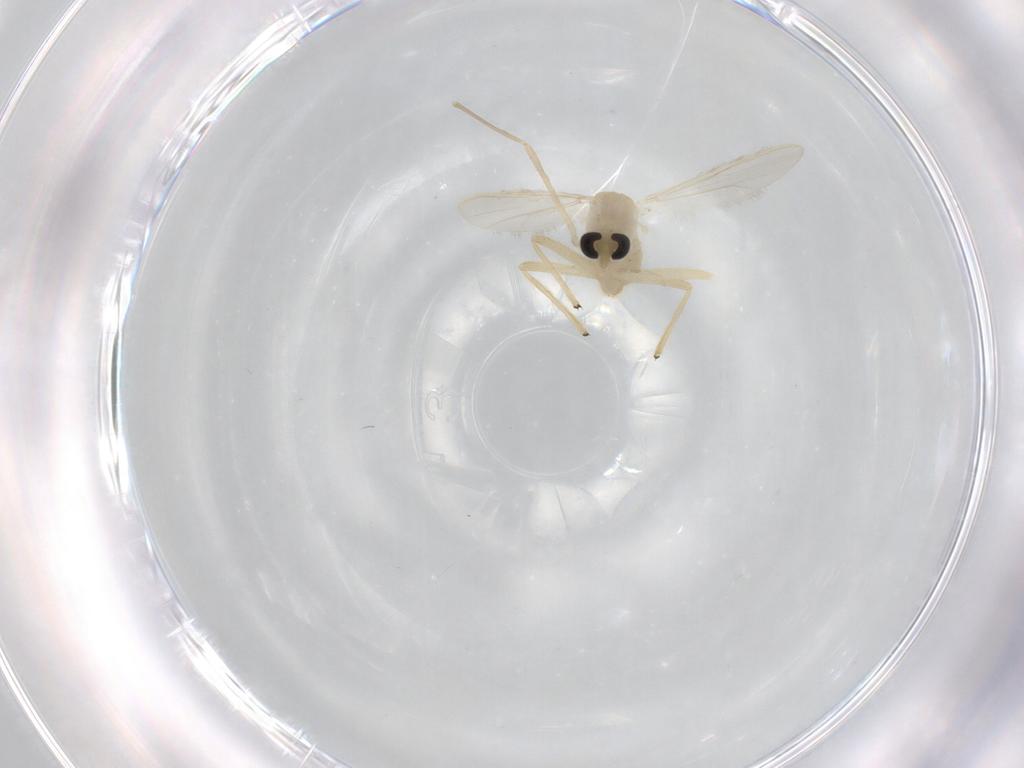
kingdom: Animalia
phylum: Arthropoda
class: Insecta
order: Diptera
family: Chironomidae
